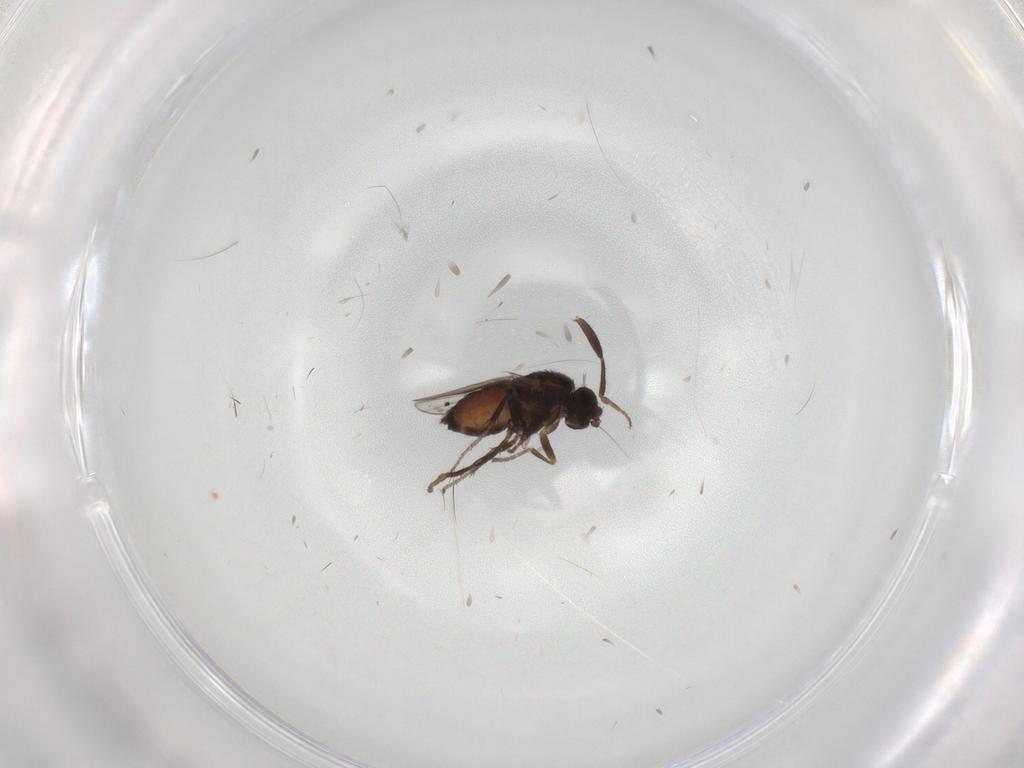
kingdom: Animalia
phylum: Arthropoda
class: Insecta
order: Diptera
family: Sphaeroceridae
